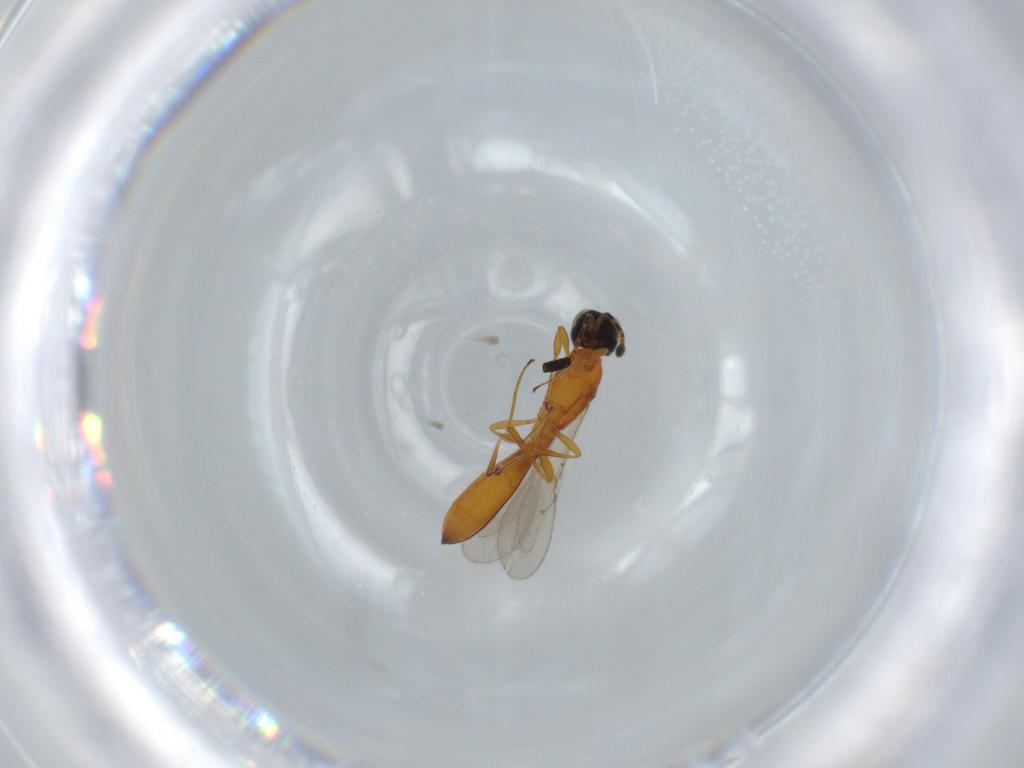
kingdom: Animalia
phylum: Arthropoda
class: Insecta
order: Hymenoptera
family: Scelionidae
